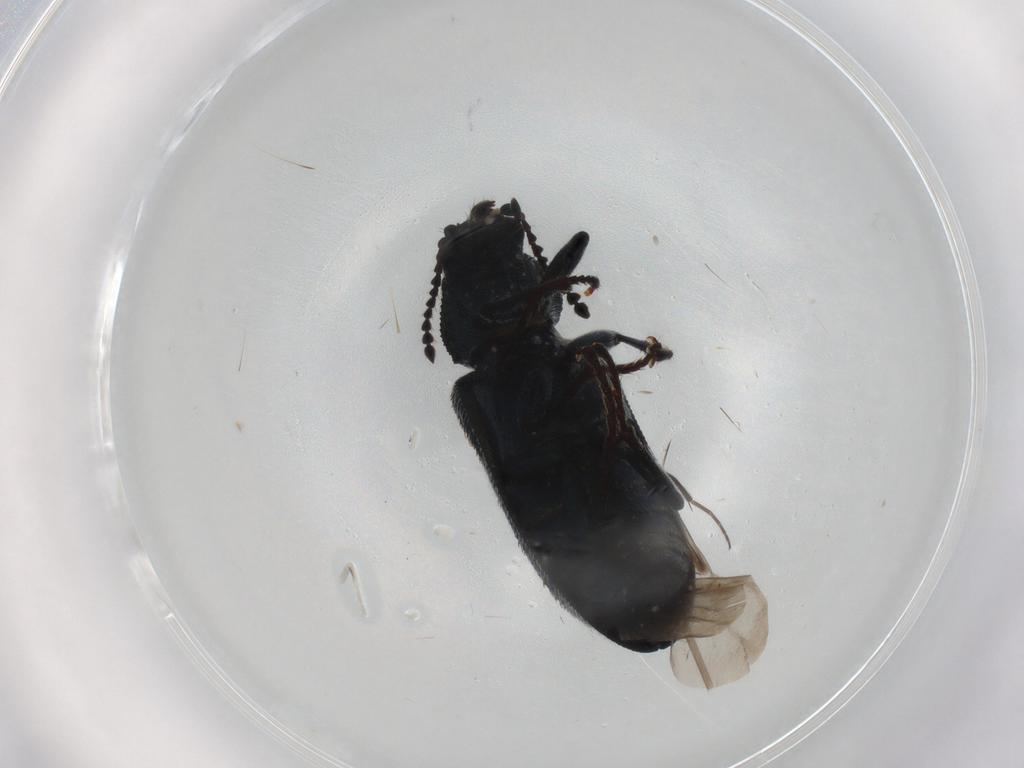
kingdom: Animalia
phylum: Arthropoda
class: Insecta
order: Coleoptera
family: Melyridae
